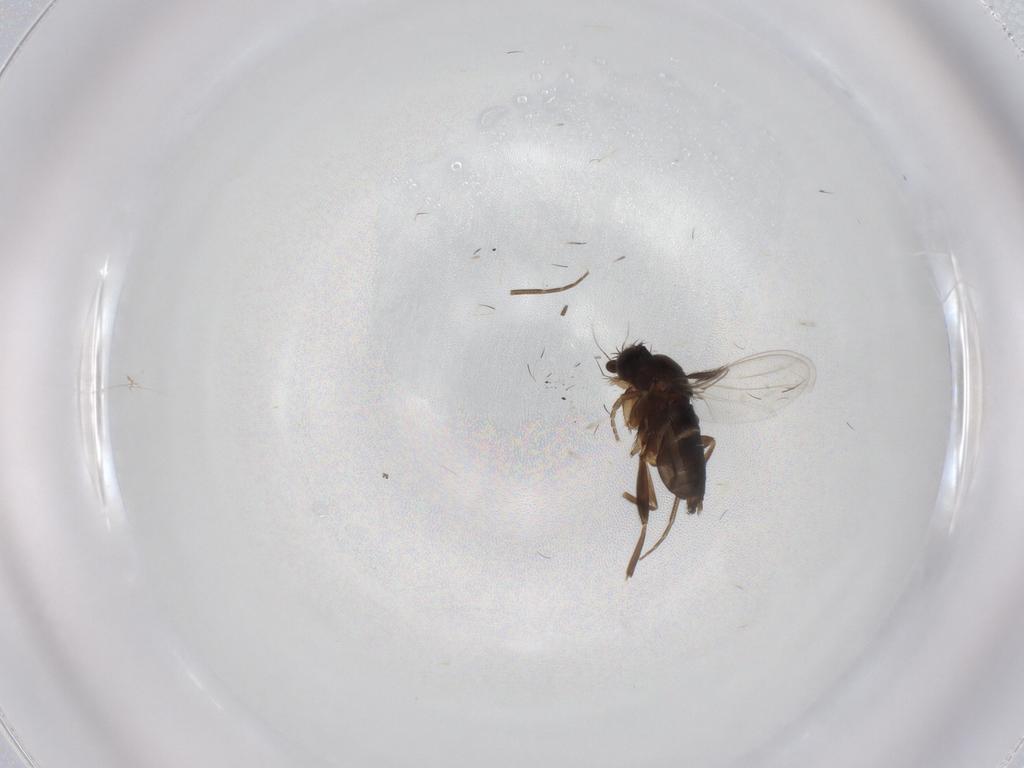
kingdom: Animalia
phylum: Arthropoda
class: Insecta
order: Diptera
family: Phoridae
